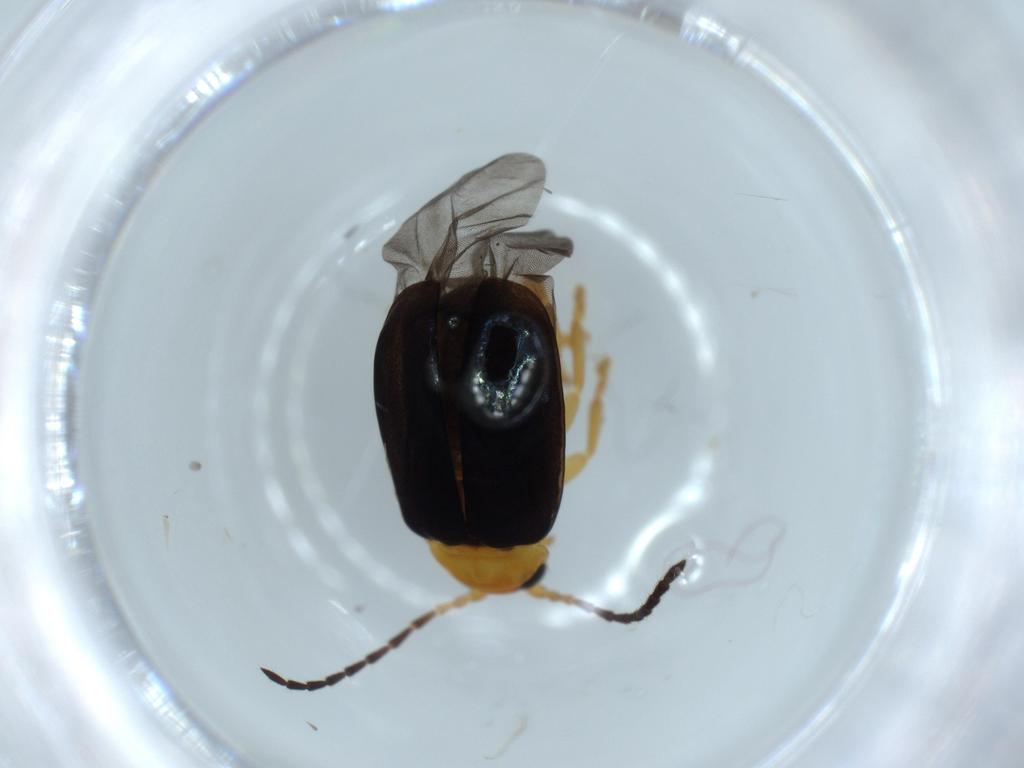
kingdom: Animalia
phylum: Arthropoda
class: Insecta
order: Coleoptera
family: Chrysomelidae
